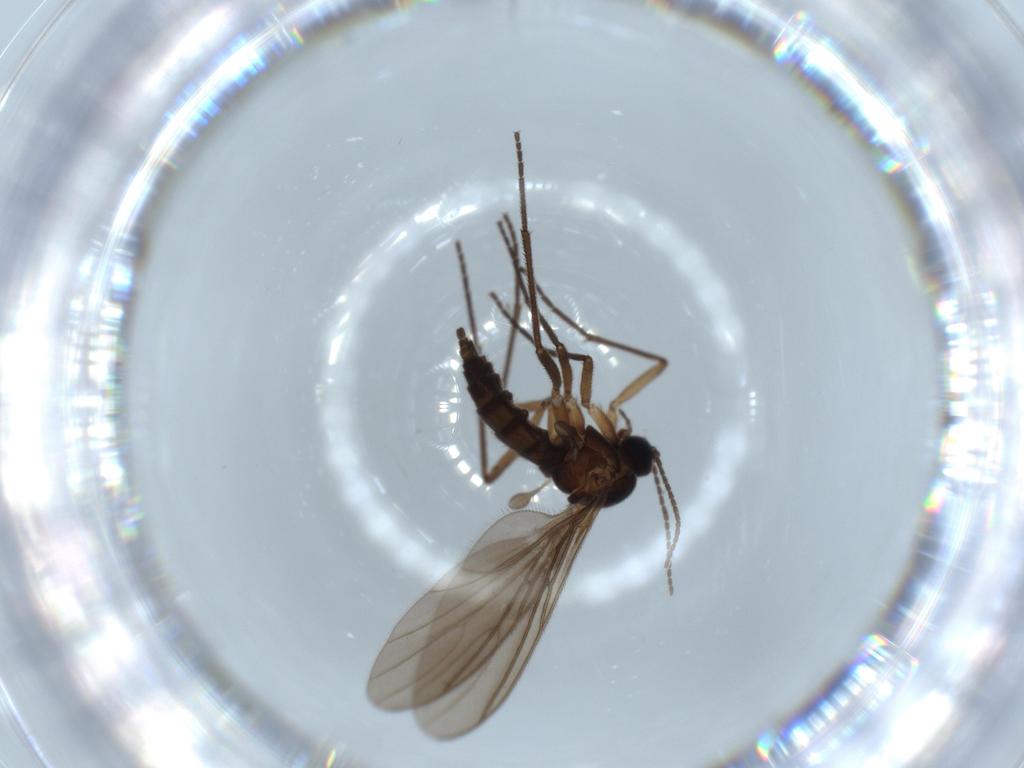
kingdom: Animalia
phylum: Arthropoda
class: Insecta
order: Diptera
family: Sciaridae
